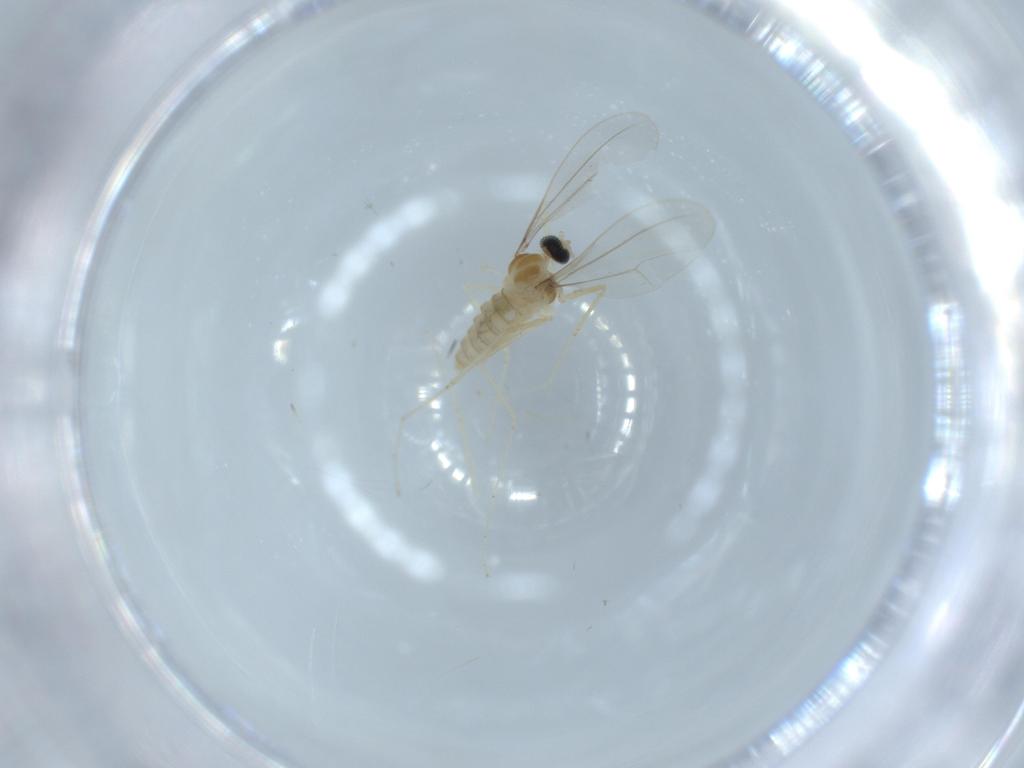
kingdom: Animalia
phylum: Arthropoda
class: Insecta
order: Diptera
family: Cecidomyiidae
